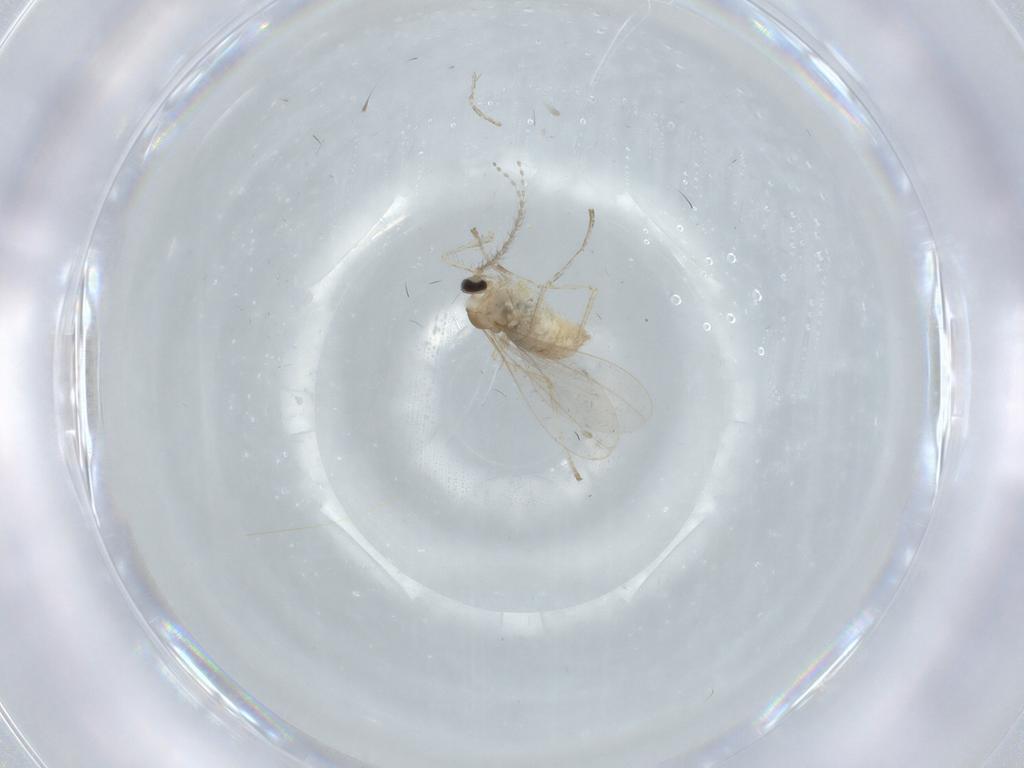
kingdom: Animalia
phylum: Arthropoda
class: Insecta
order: Diptera
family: Cecidomyiidae
